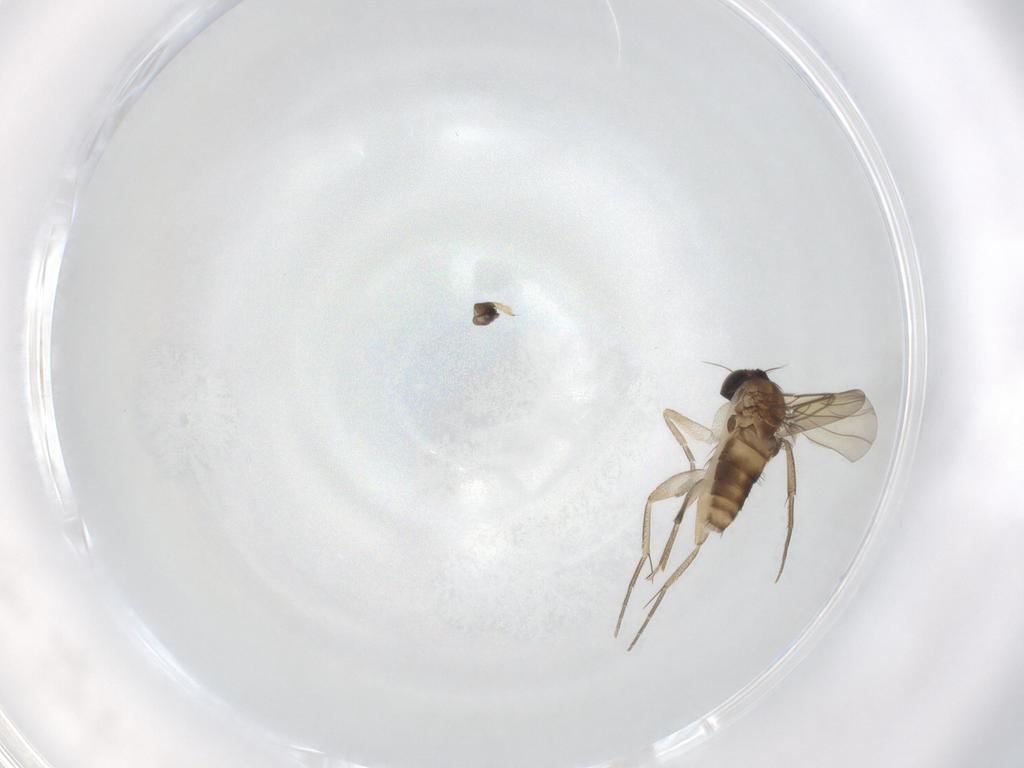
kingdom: Animalia
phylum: Arthropoda
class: Insecta
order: Diptera
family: Phoridae
